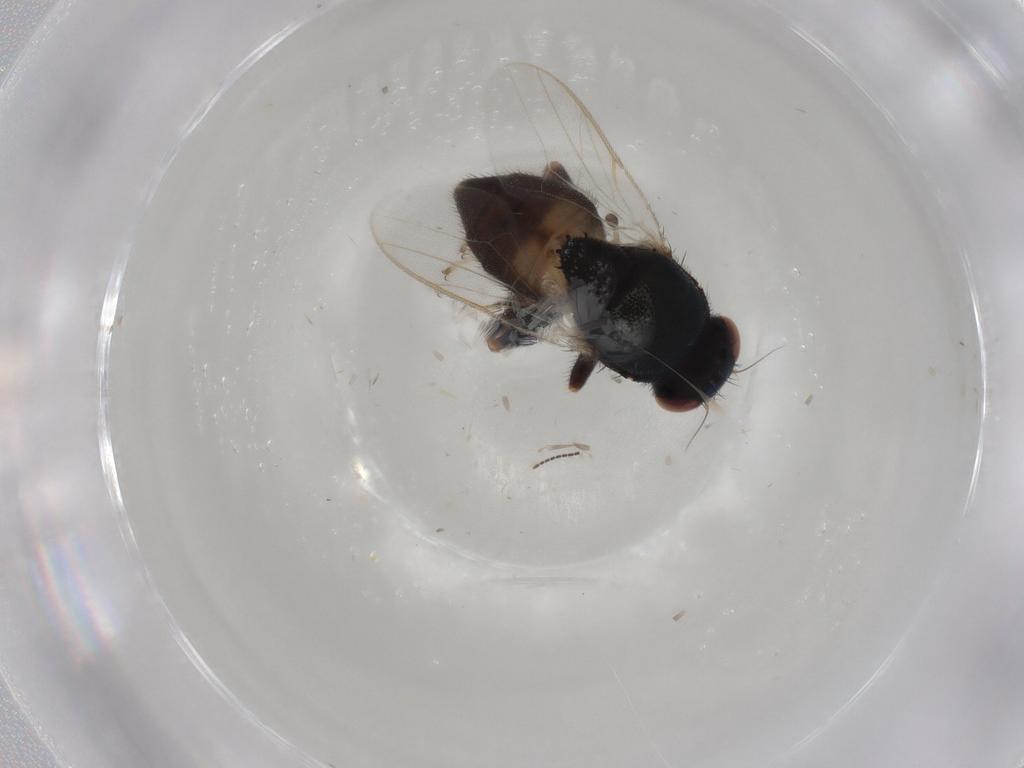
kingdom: Animalia
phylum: Arthropoda
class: Insecta
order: Diptera
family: Chloropidae
